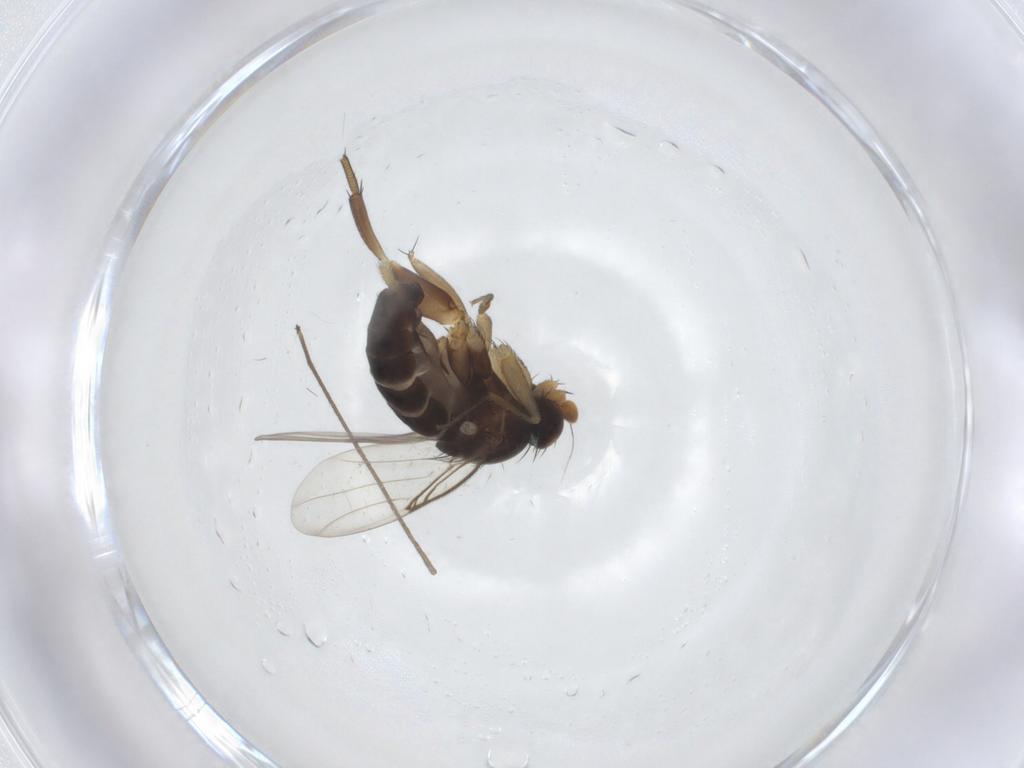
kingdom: Animalia
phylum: Arthropoda
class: Insecta
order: Diptera
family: Phoridae
